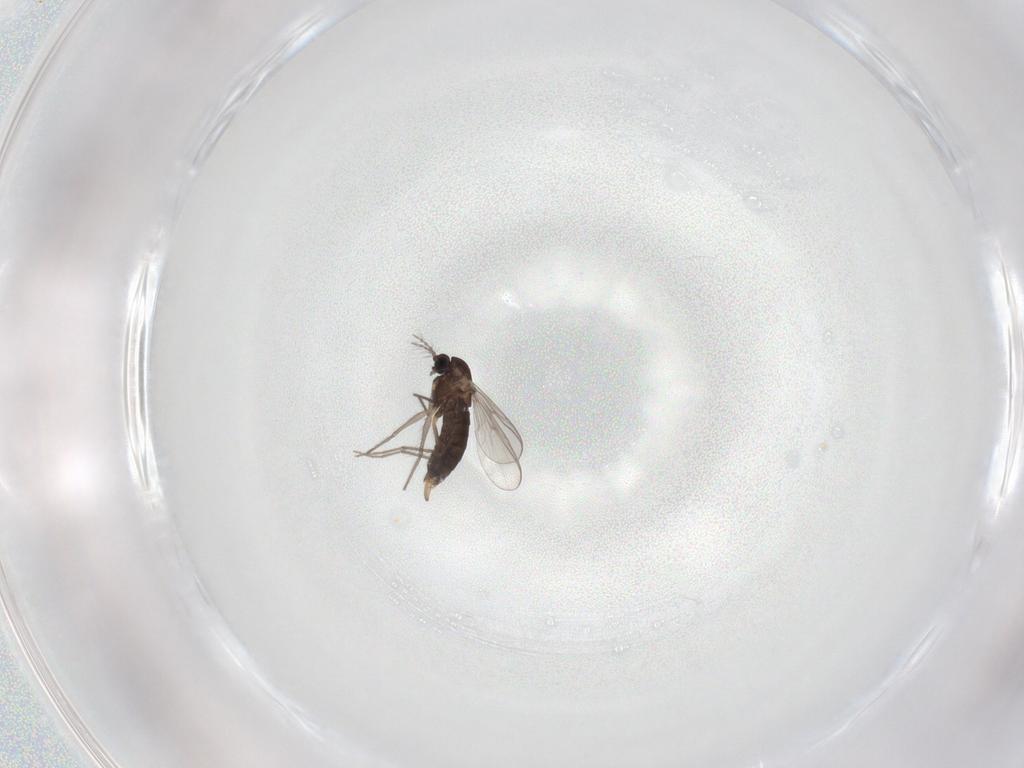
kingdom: Animalia
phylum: Arthropoda
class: Insecta
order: Diptera
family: Chironomidae
